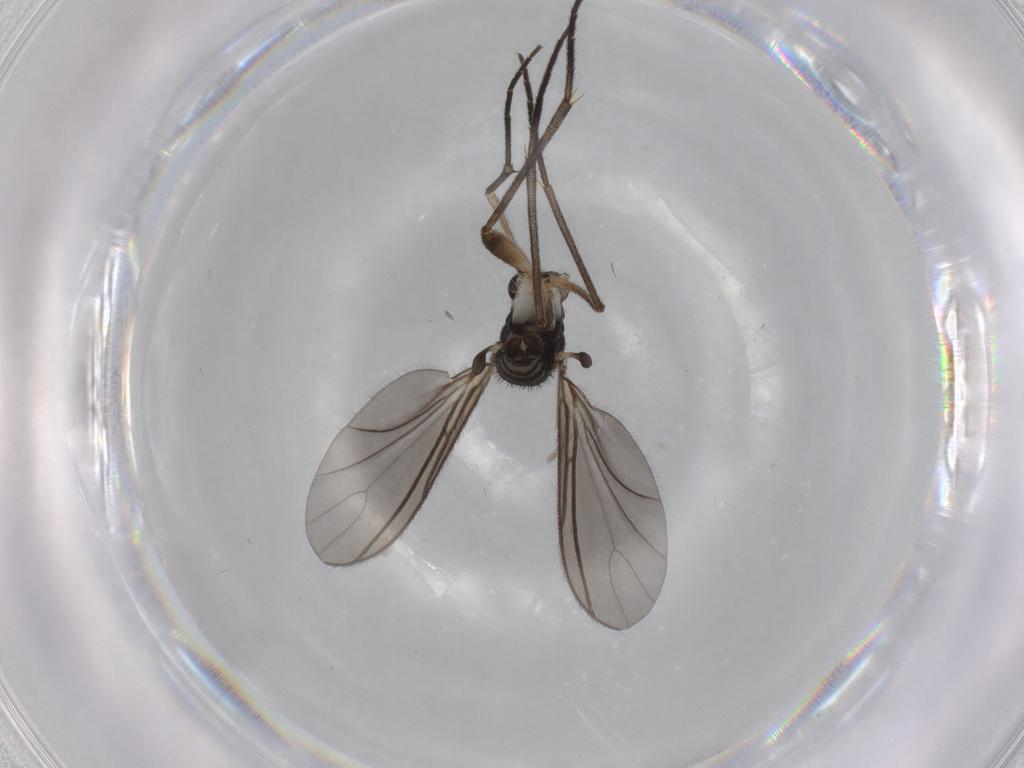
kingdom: Animalia
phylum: Arthropoda
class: Insecta
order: Diptera
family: Sciaridae
